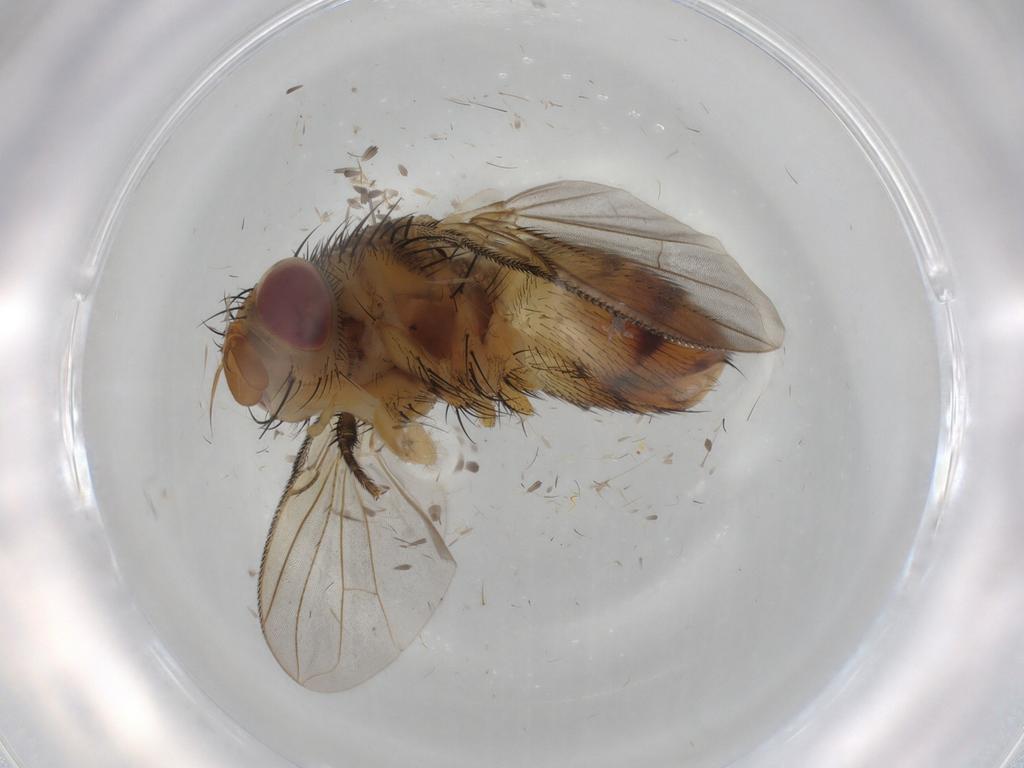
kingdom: Animalia
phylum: Arthropoda
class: Insecta
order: Diptera
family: Tachinidae
